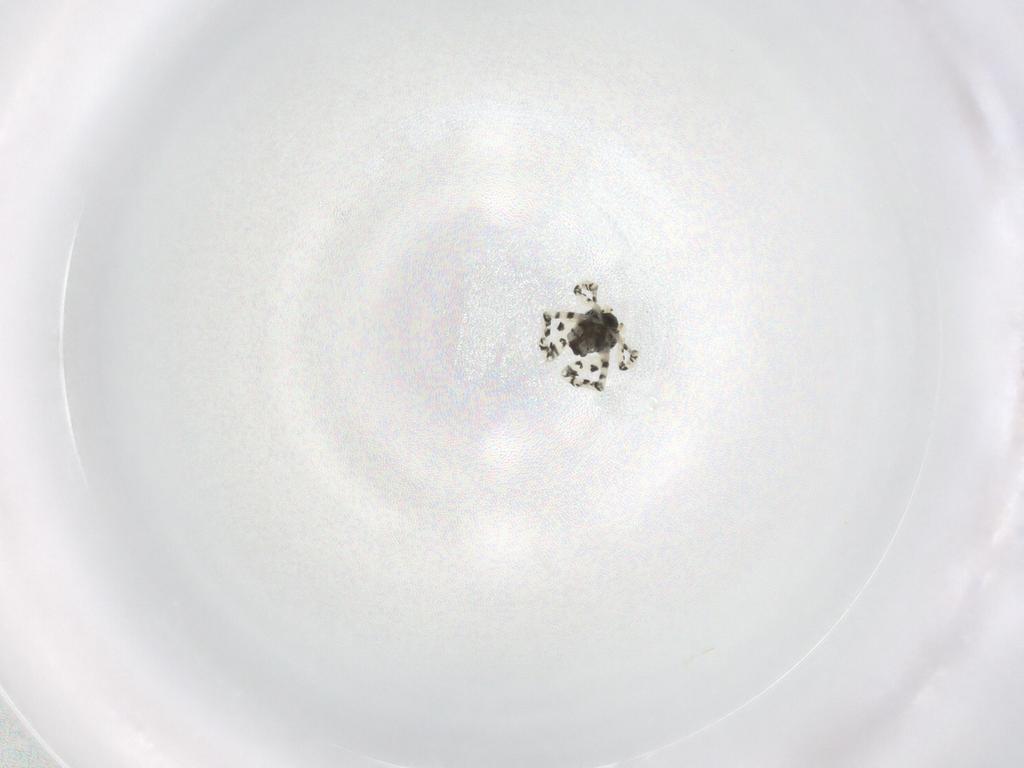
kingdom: Animalia
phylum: Arthropoda
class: Arachnida
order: Araneae
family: Theridiidae
